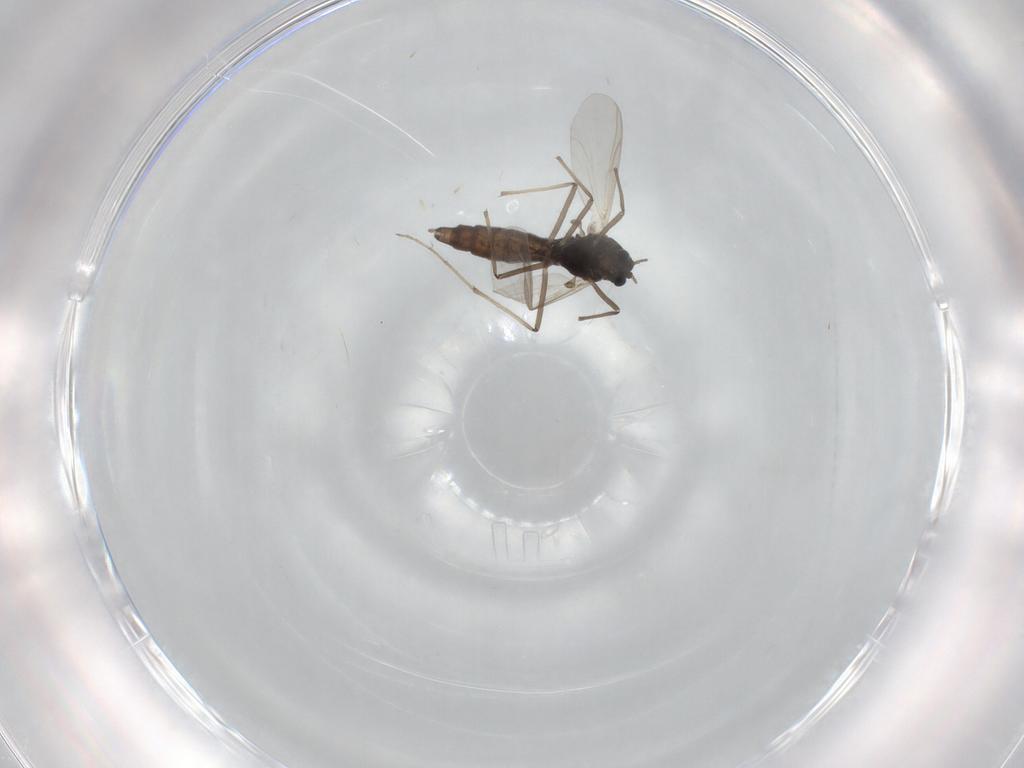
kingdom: Animalia
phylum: Arthropoda
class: Insecta
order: Diptera
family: Chironomidae
